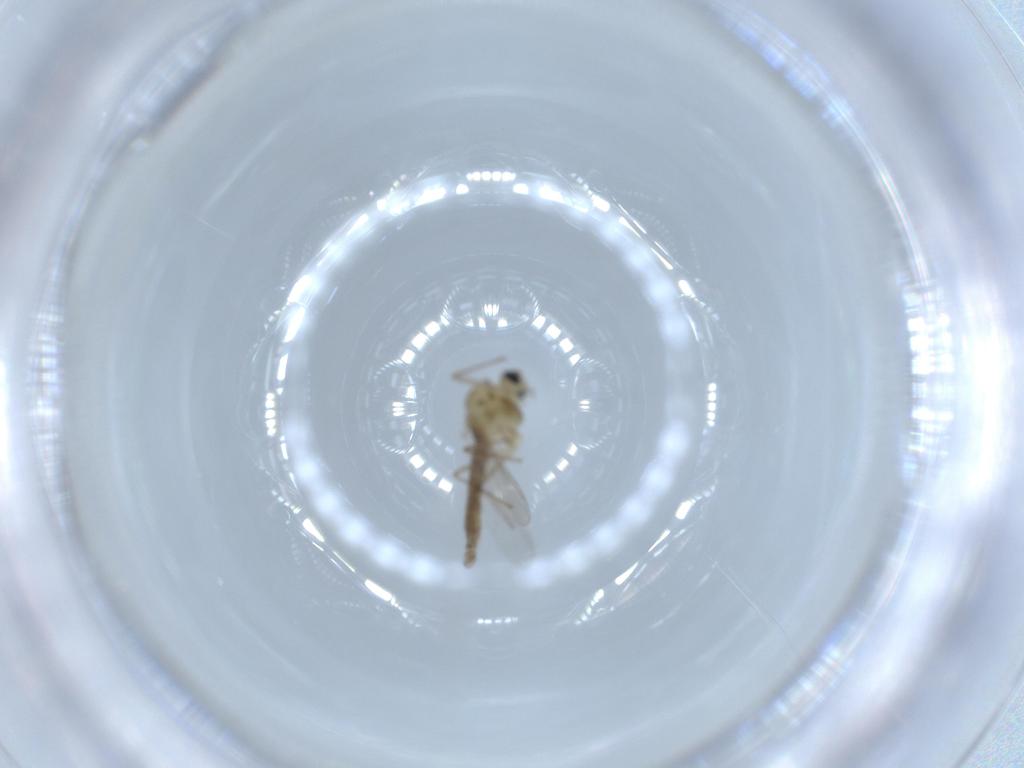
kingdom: Animalia
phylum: Arthropoda
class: Insecta
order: Diptera
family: Chironomidae
